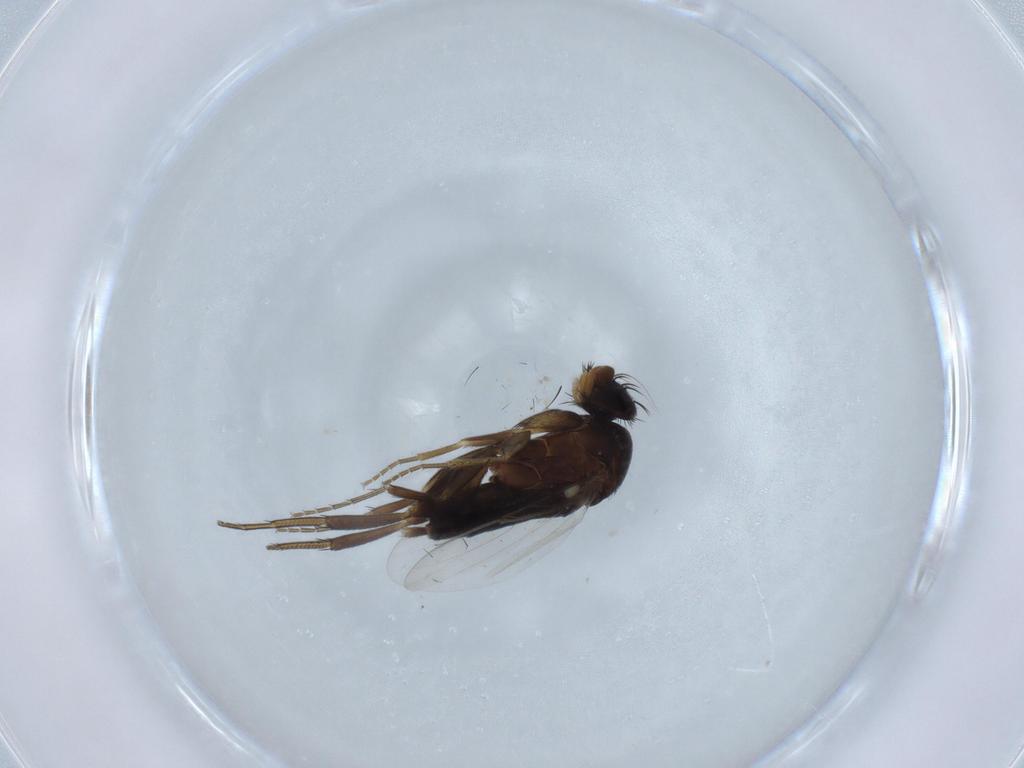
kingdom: Animalia
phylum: Arthropoda
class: Insecta
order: Diptera
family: Phoridae
